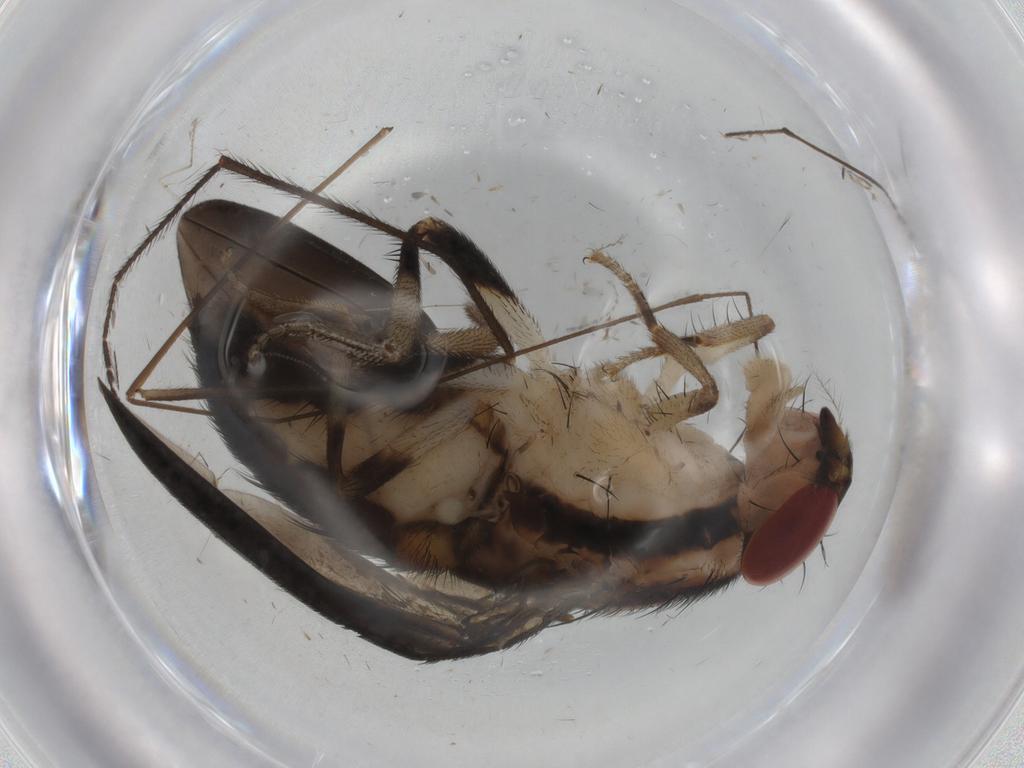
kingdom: Animalia
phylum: Arthropoda
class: Insecta
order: Diptera
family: Drosophilidae
